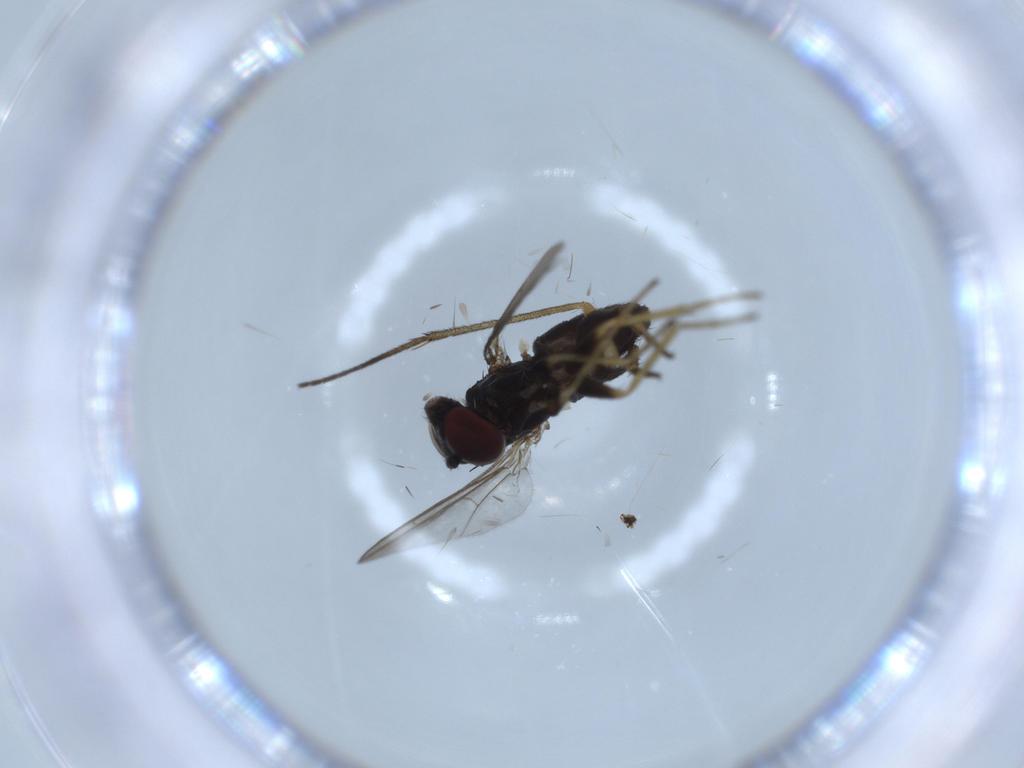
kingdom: Animalia
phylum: Arthropoda
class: Insecta
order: Diptera
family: Dolichopodidae
